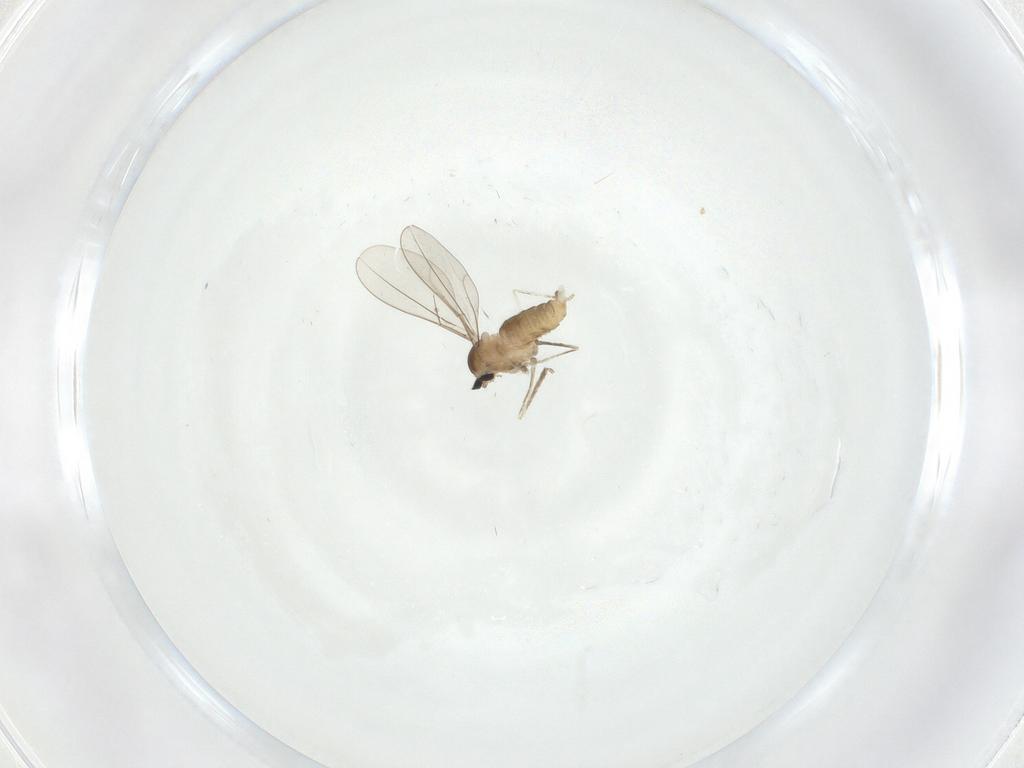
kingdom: Animalia
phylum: Arthropoda
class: Insecta
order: Diptera
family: Cecidomyiidae
